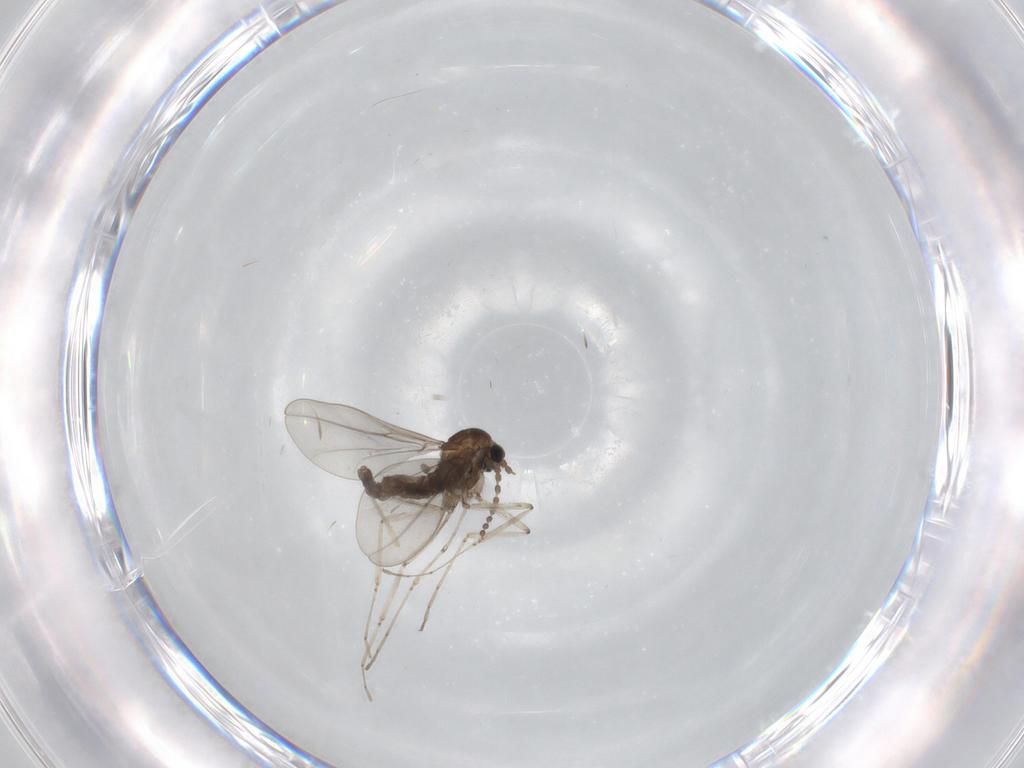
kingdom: Animalia
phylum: Arthropoda
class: Insecta
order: Diptera
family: Cecidomyiidae
